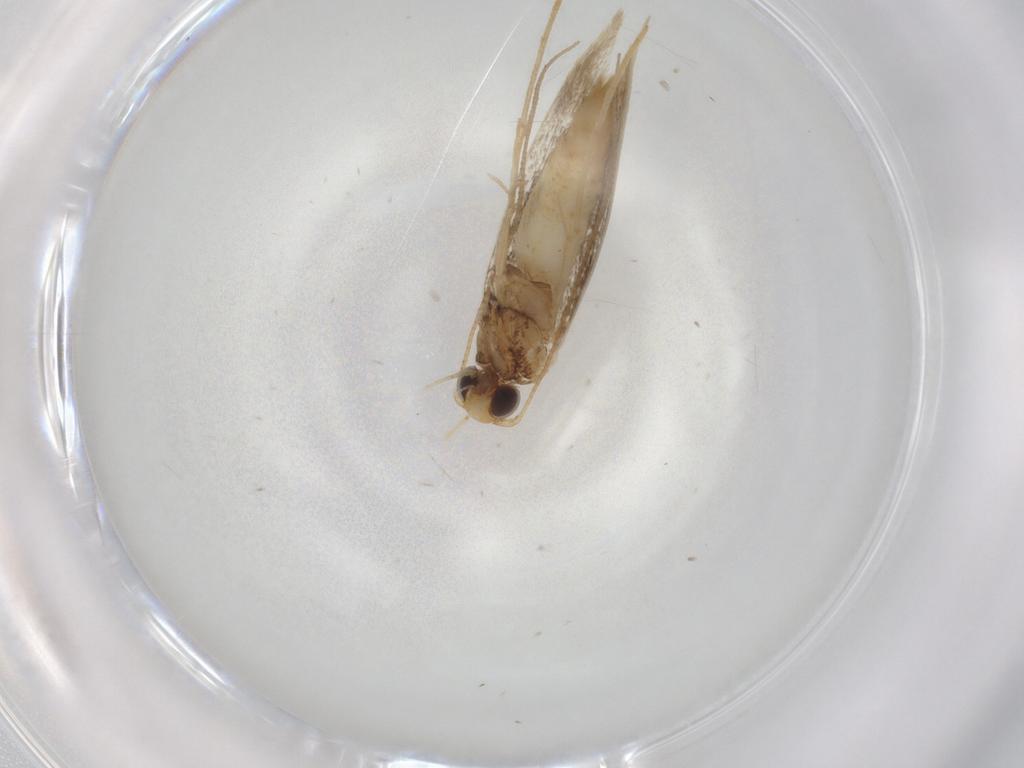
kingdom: Animalia
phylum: Arthropoda
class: Insecta
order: Lepidoptera
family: Gracillariidae
